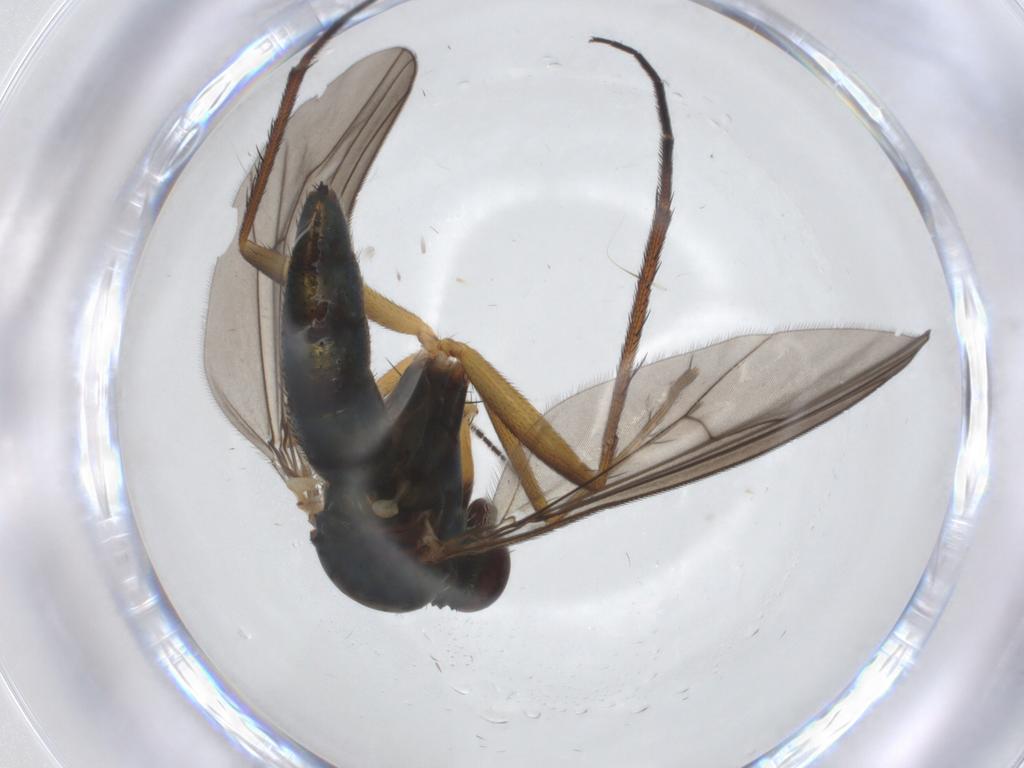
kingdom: Animalia
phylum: Arthropoda
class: Insecta
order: Diptera
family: Dolichopodidae
